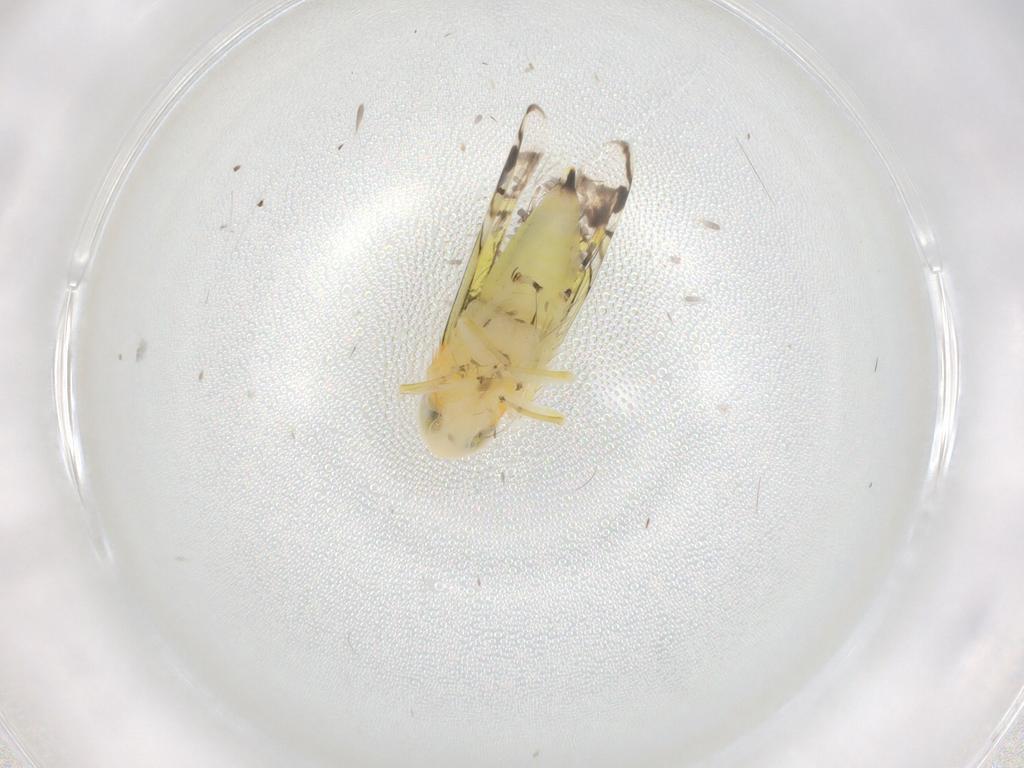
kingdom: Animalia
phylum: Arthropoda
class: Insecta
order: Hemiptera
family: Cicadellidae
